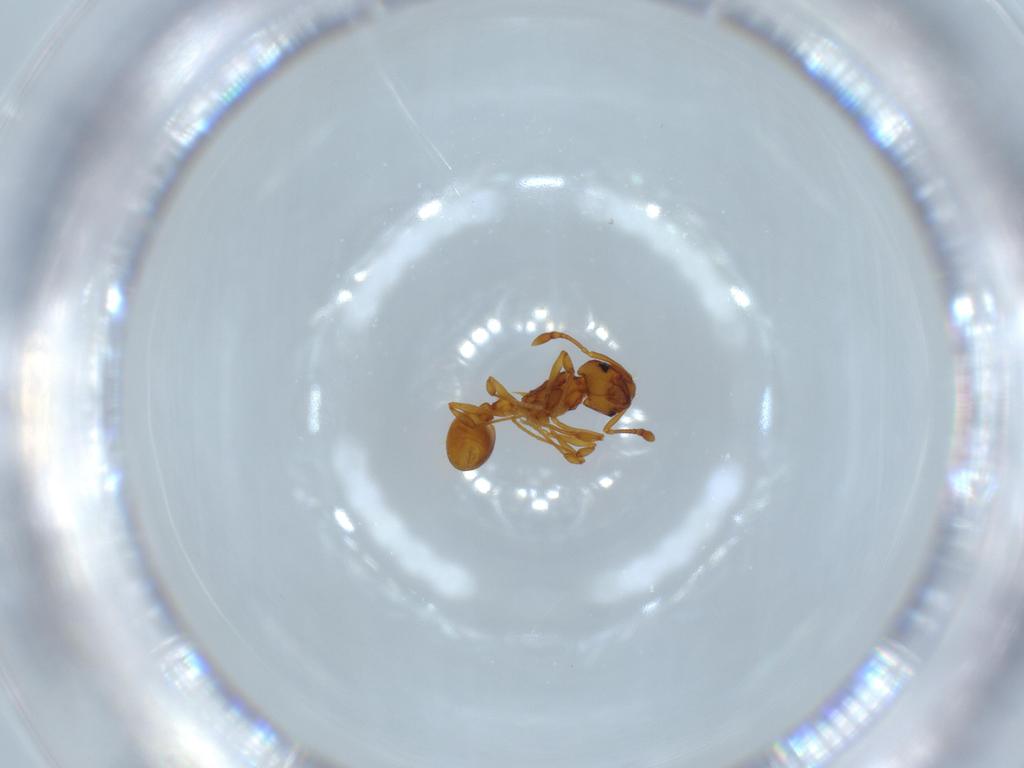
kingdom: Animalia
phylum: Arthropoda
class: Insecta
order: Hymenoptera
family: Formicidae
